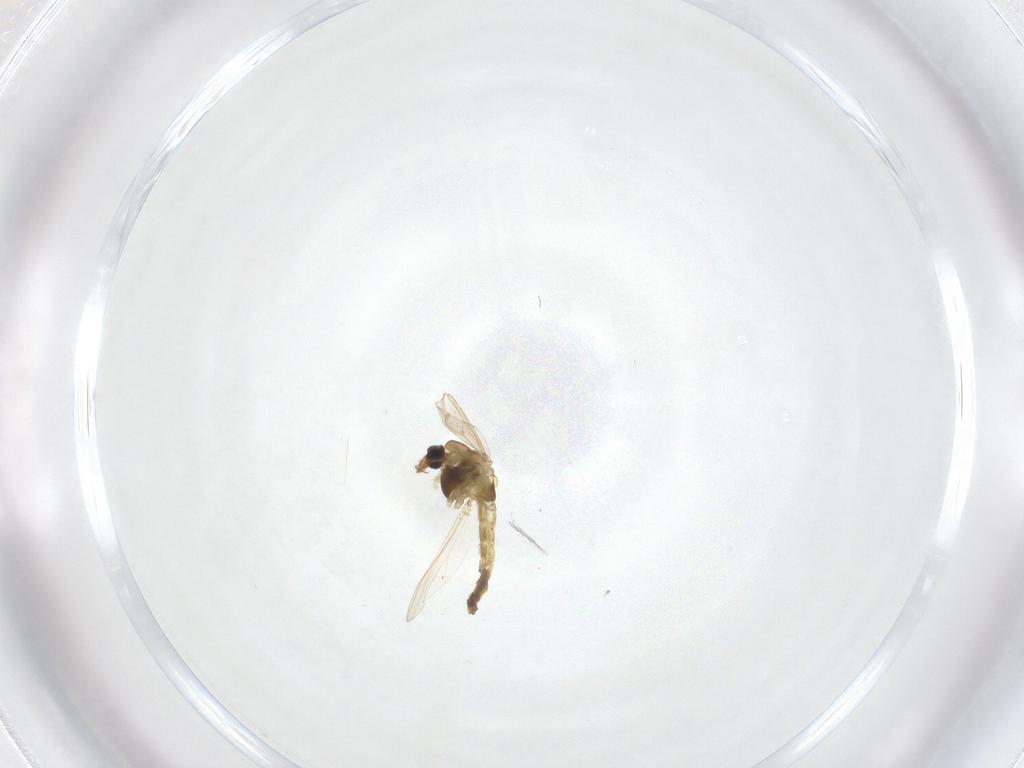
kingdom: Animalia
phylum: Arthropoda
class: Insecta
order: Diptera
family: Chironomidae
